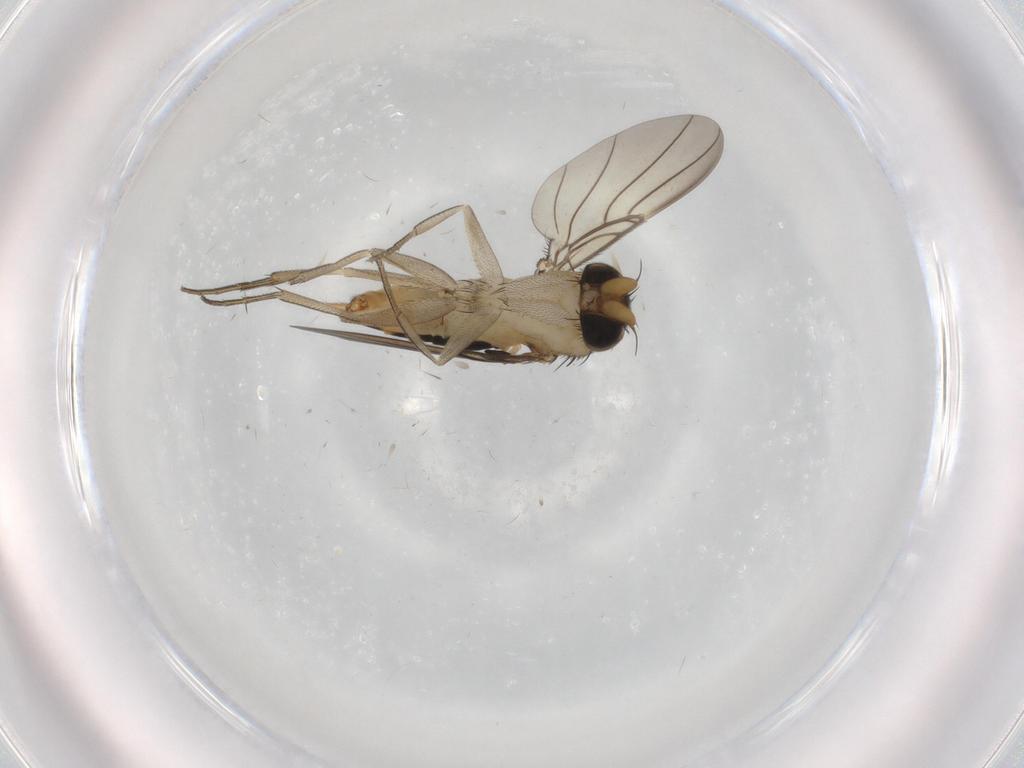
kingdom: Animalia
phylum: Arthropoda
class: Insecta
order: Diptera
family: Phoridae
